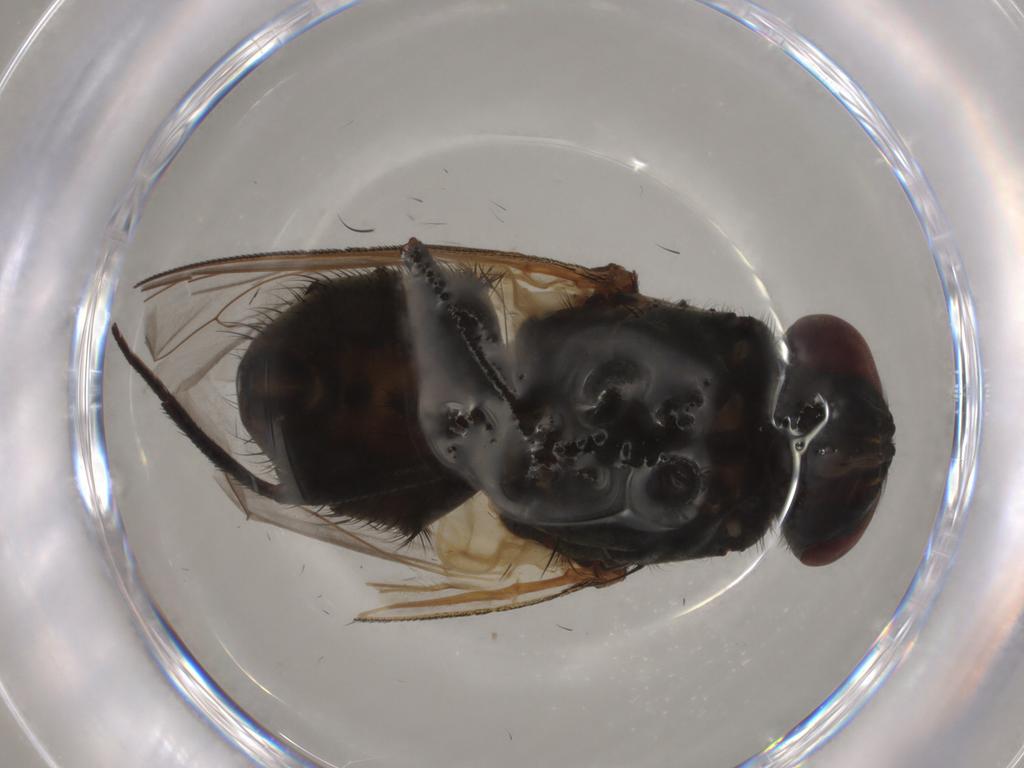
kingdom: Animalia
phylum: Arthropoda
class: Insecta
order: Diptera
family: Muscidae
